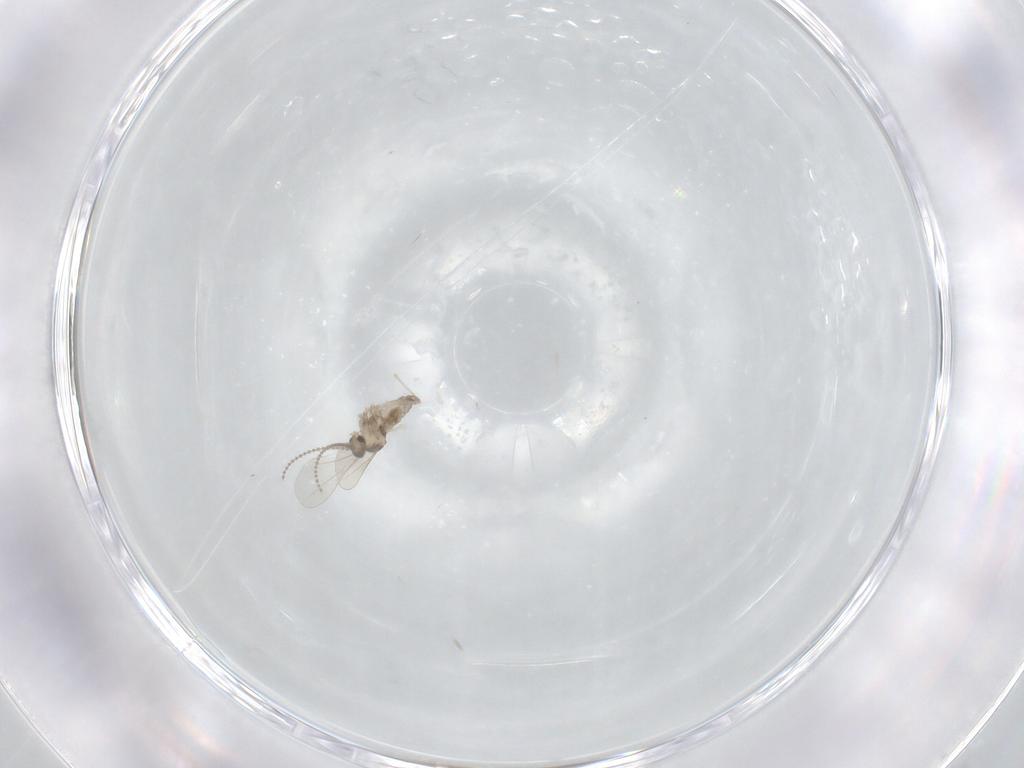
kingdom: Animalia
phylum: Arthropoda
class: Insecta
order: Diptera
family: Cecidomyiidae
